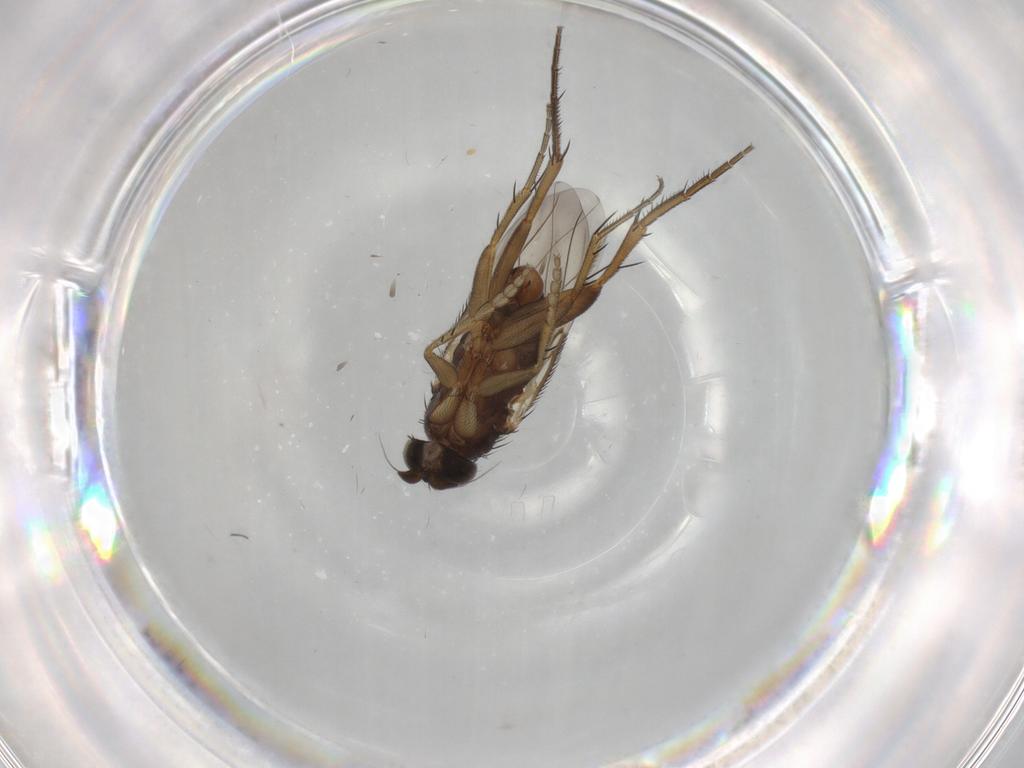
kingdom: Animalia
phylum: Arthropoda
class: Insecta
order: Diptera
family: Phoridae
